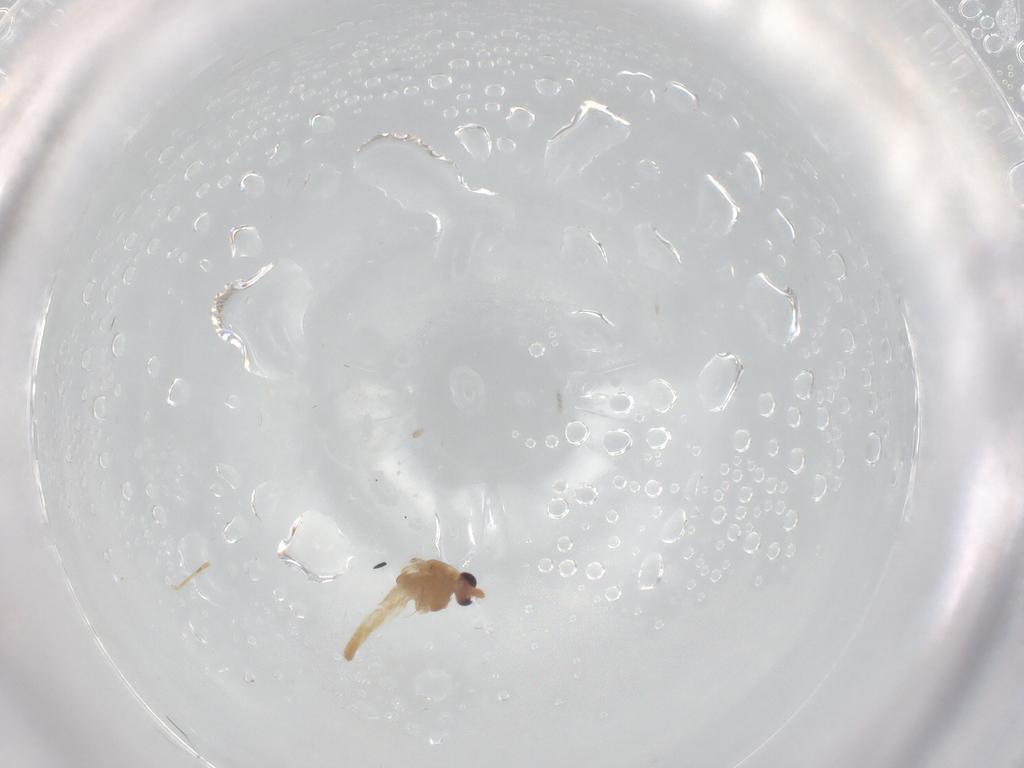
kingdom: Animalia
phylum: Arthropoda
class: Insecta
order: Diptera
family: Chironomidae
